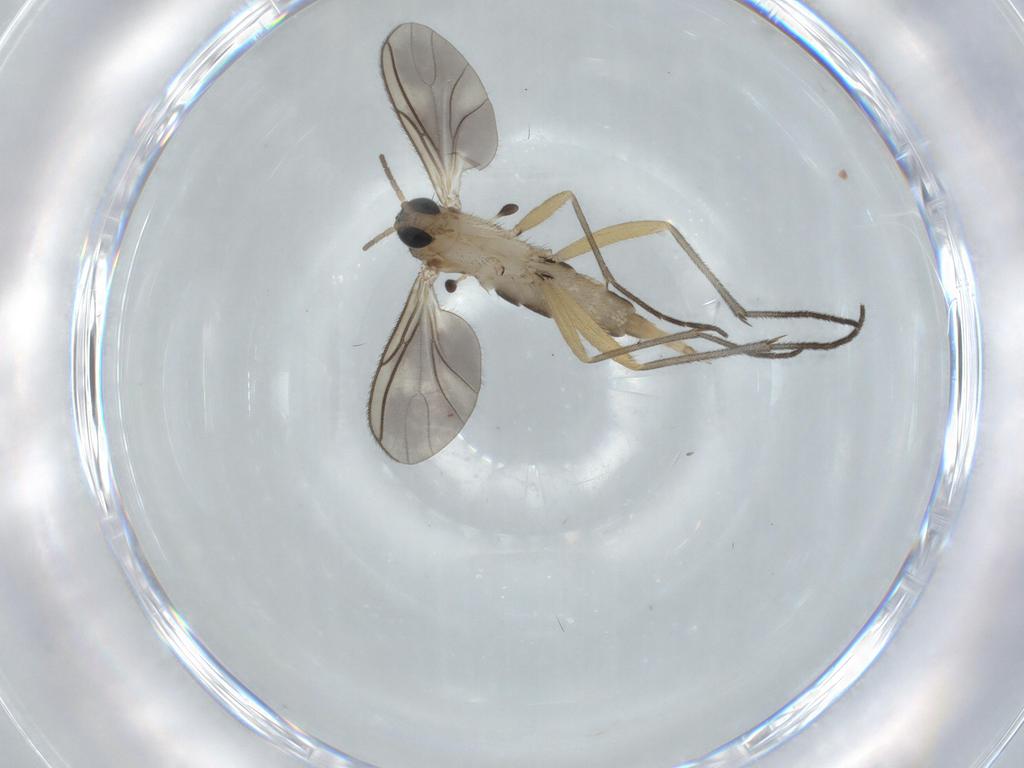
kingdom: Animalia
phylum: Arthropoda
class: Insecta
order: Diptera
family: Sciaridae
